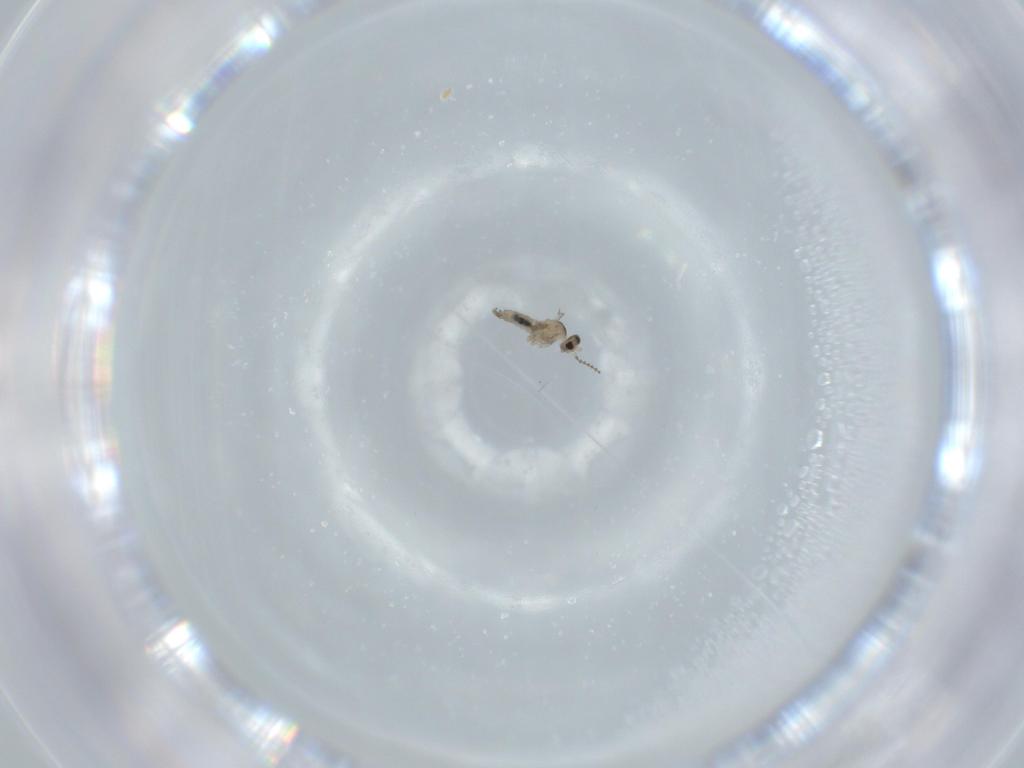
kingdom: Animalia
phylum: Arthropoda
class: Insecta
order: Diptera
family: Cecidomyiidae
